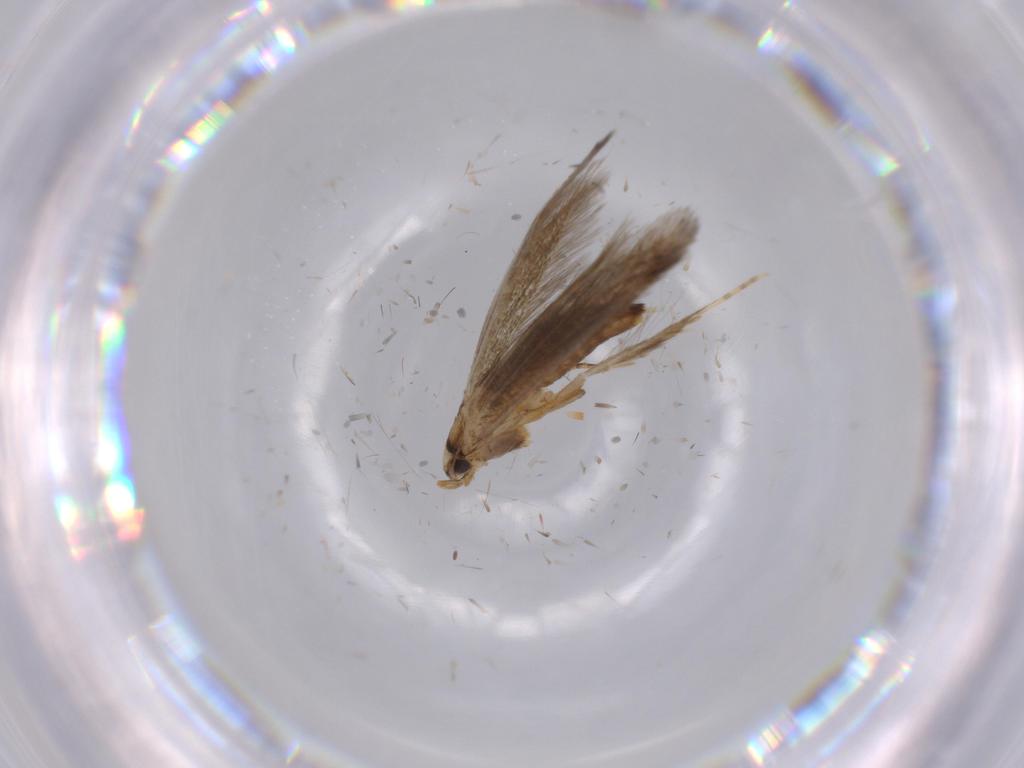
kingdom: Animalia
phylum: Arthropoda
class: Insecta
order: Lepidoptera
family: Tineidae
